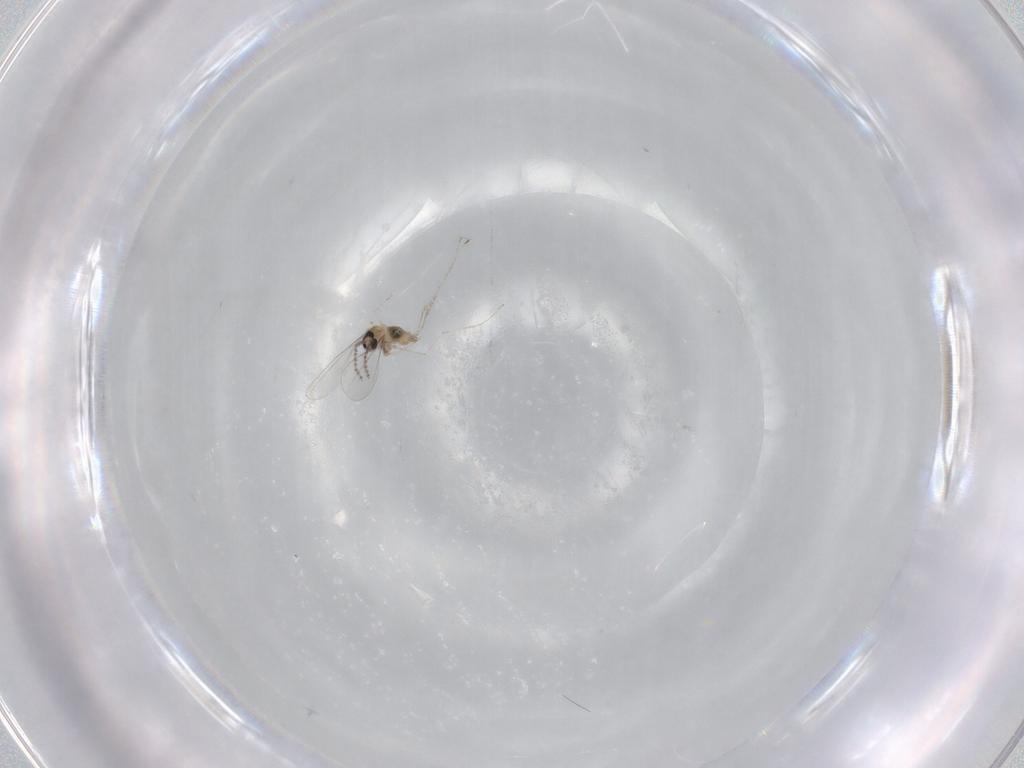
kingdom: Animalia
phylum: Arthropoda
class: Insecta
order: Diptera
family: Cecidomyiidae
